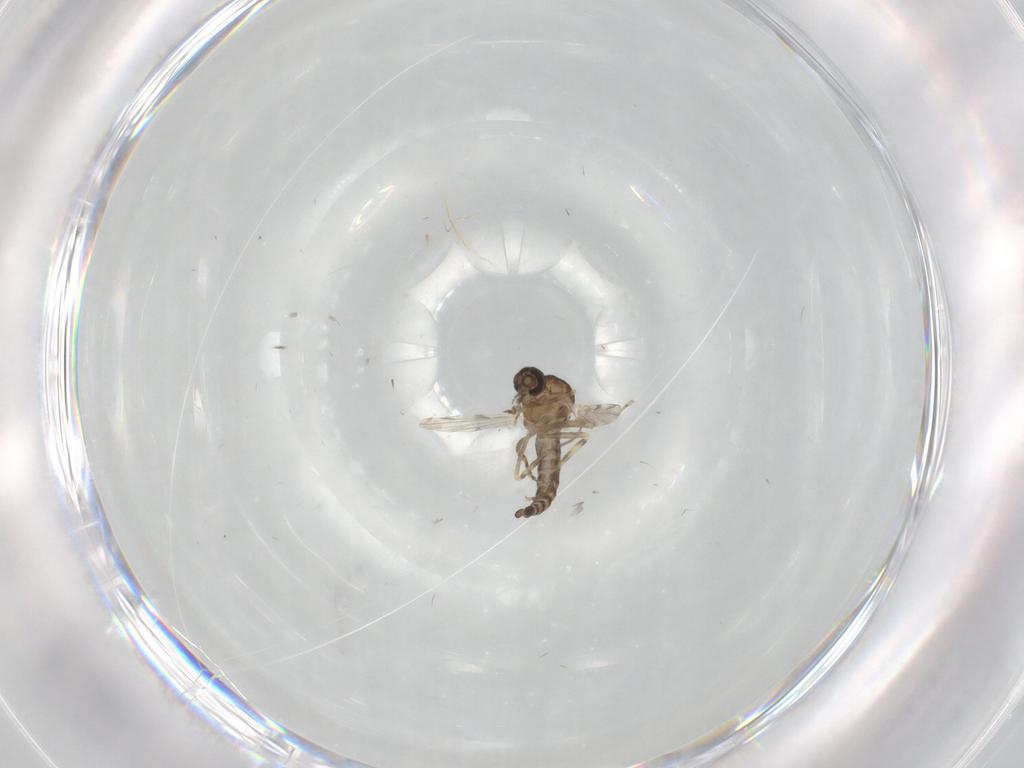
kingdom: Animalia
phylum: Arthropoda
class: Insecta
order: Diptera
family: Ceratopogonidae
